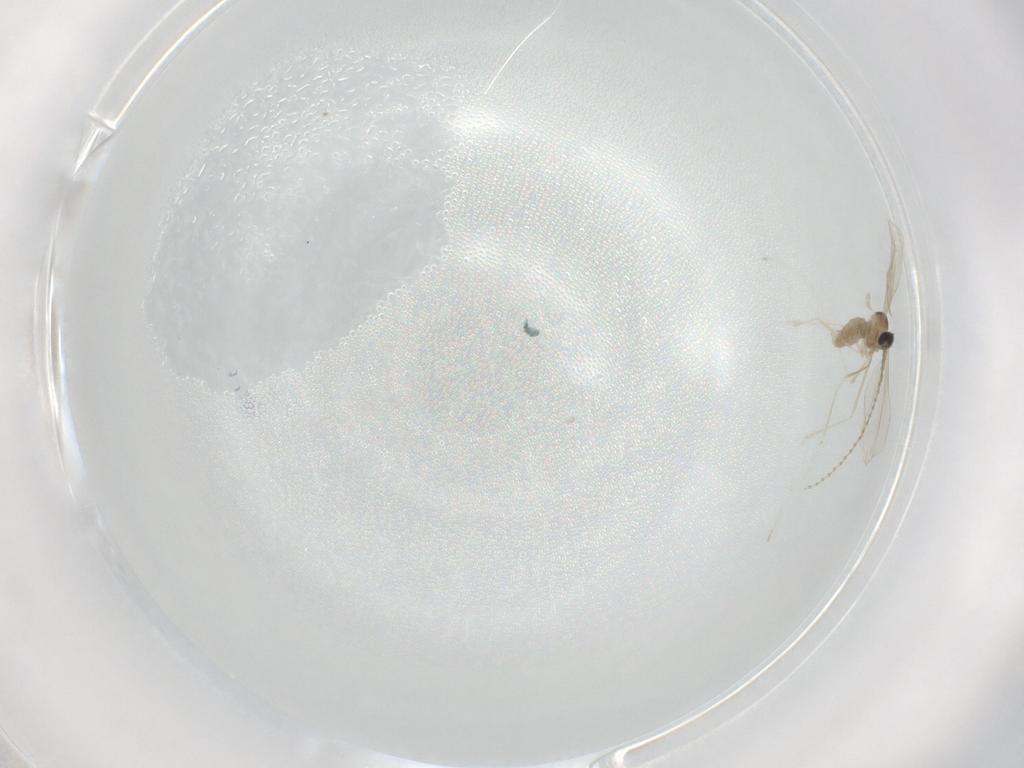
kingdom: Animalia
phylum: Arthropoda
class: Insecta
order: Diptera
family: Cecidomyiidae
